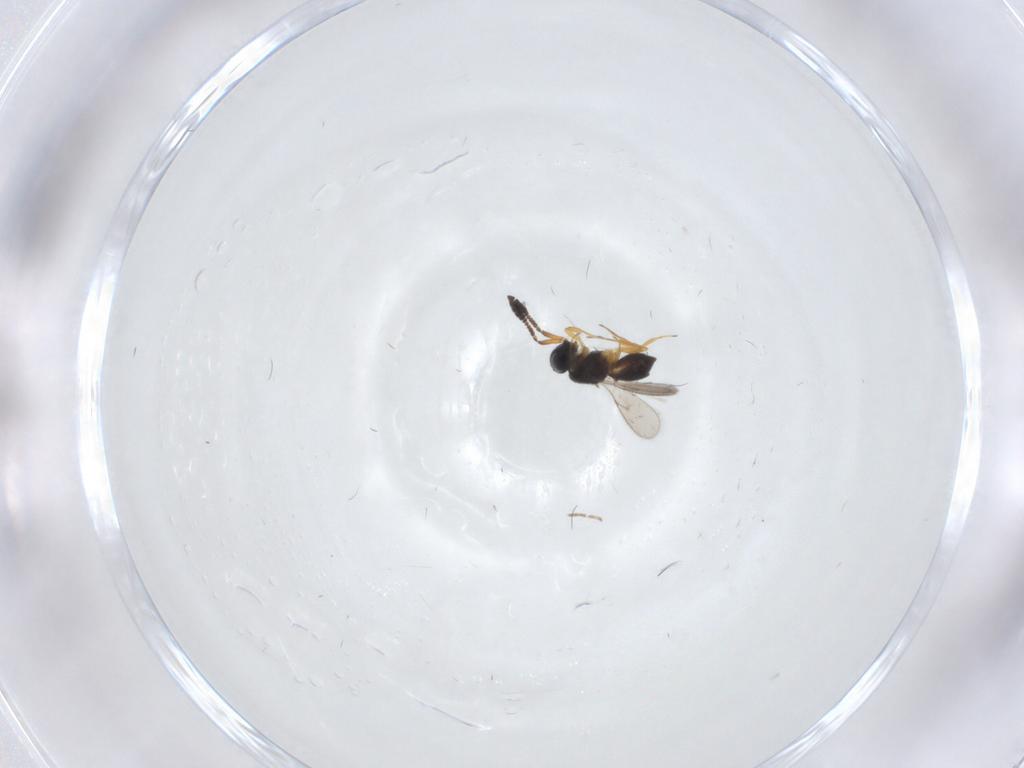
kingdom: Animalia
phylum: Arthropoda
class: Insecta
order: Hymenoptera
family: Scelionidae
